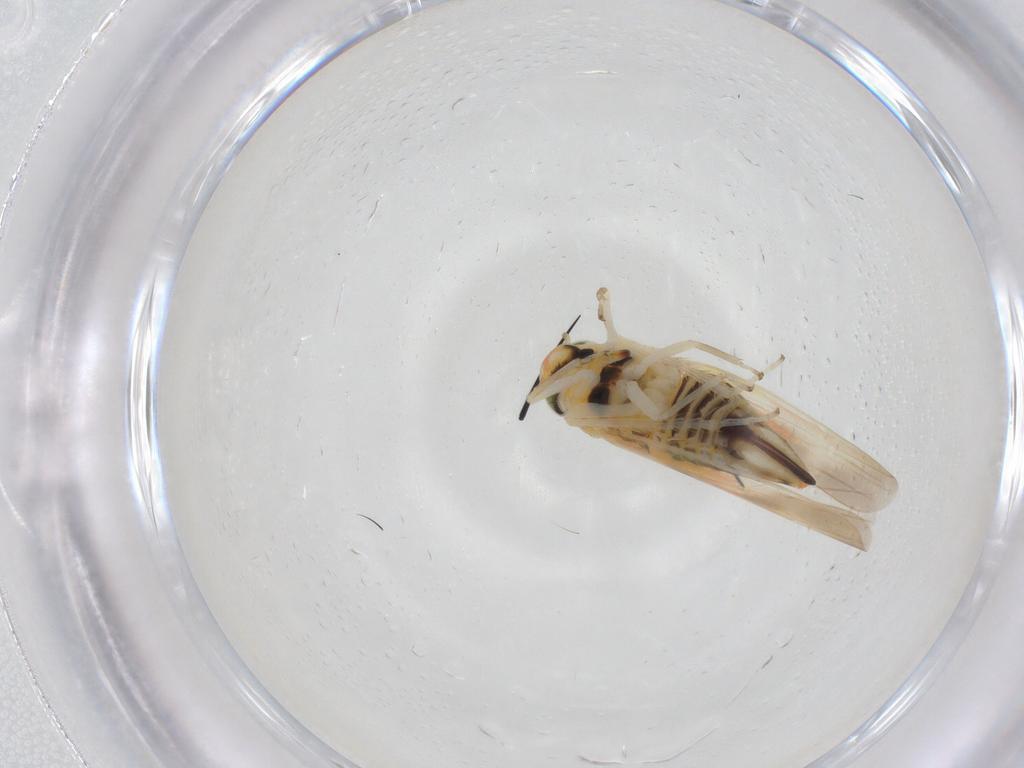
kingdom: Animalia
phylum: Arthropoda
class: Insecta
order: Hemiptera
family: Cicadellidae
